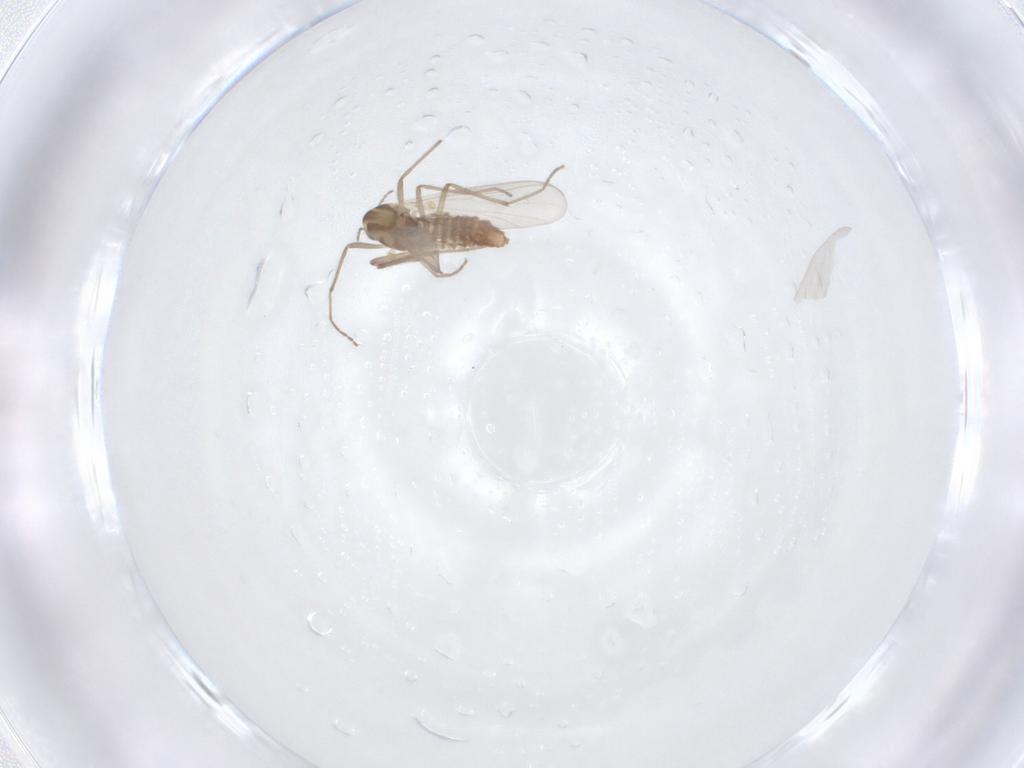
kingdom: Animalia
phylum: Arthropoda
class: Insecta
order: Diptera
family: Chironomidae
